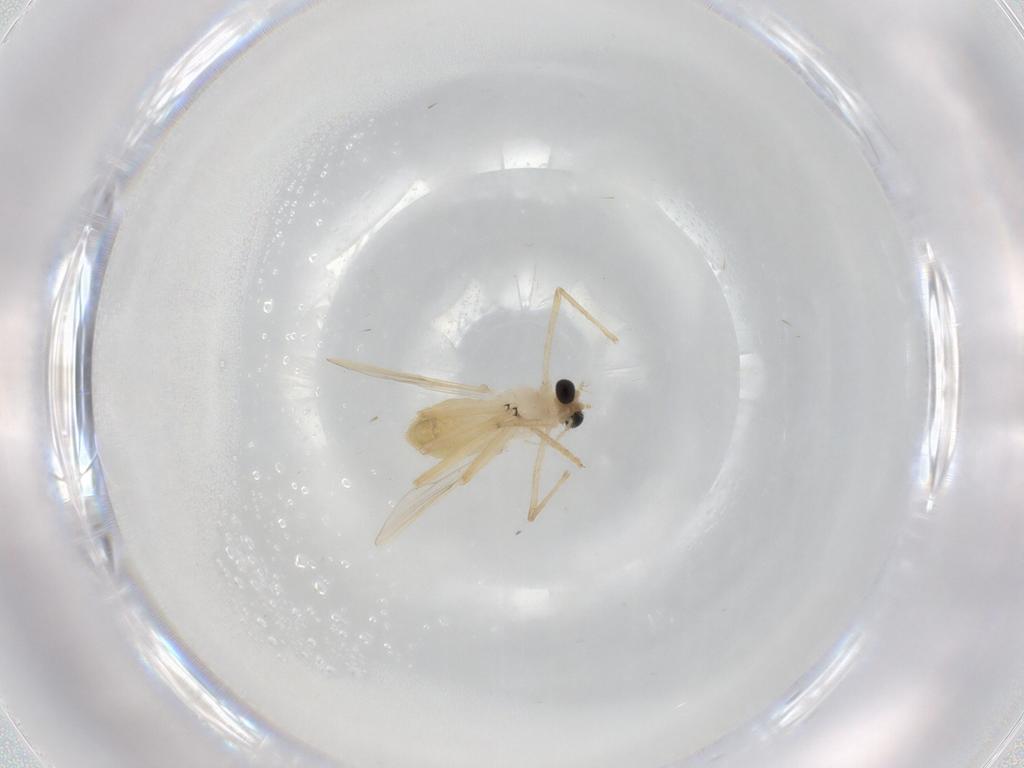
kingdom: Animalia
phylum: Arthropoda
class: Insecta
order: Diptera
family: Chironomidae
